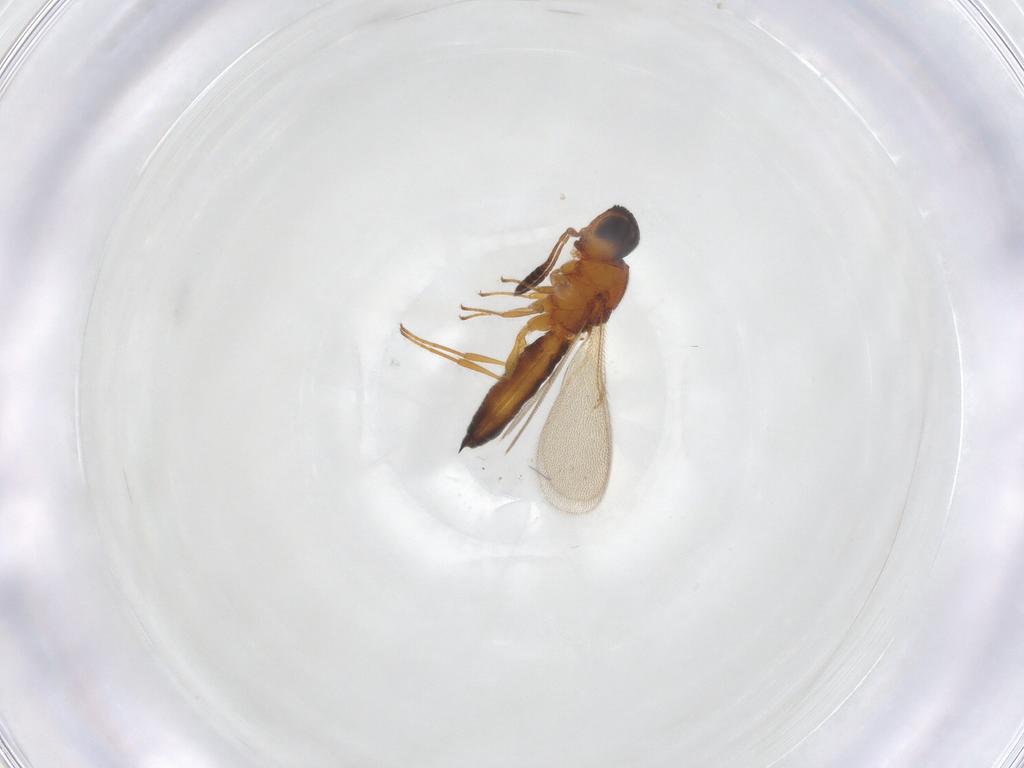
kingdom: Animalia
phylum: Arthropoda
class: Insecta
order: Hymenoptera
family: Scelionidae
